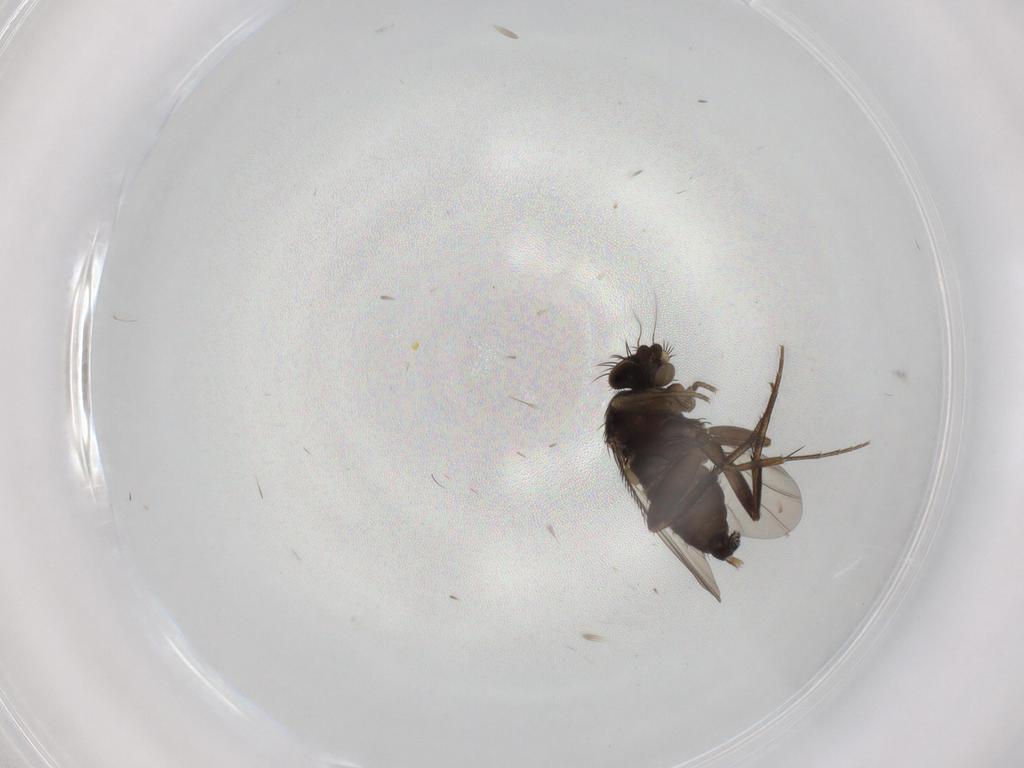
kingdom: Animalia
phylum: Arthropoda
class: Insecta
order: Diptera
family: Phoridae
